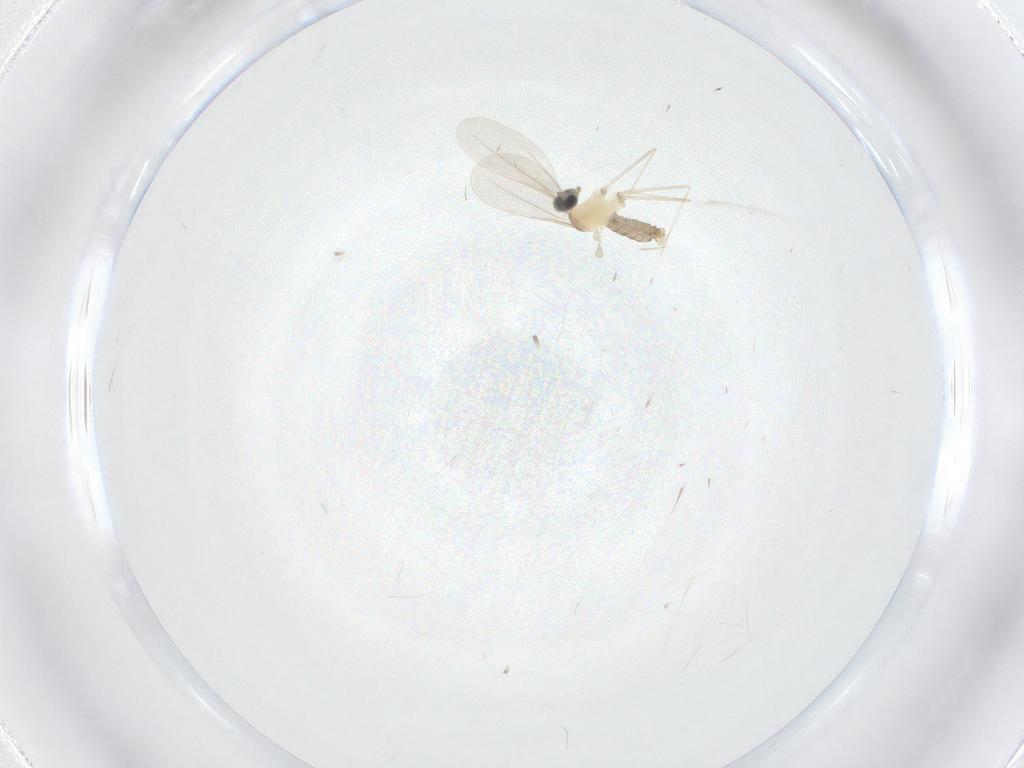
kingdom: Animalia
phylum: Arthropoda
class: Insecta
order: Diptera
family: Cecidomyiidae
